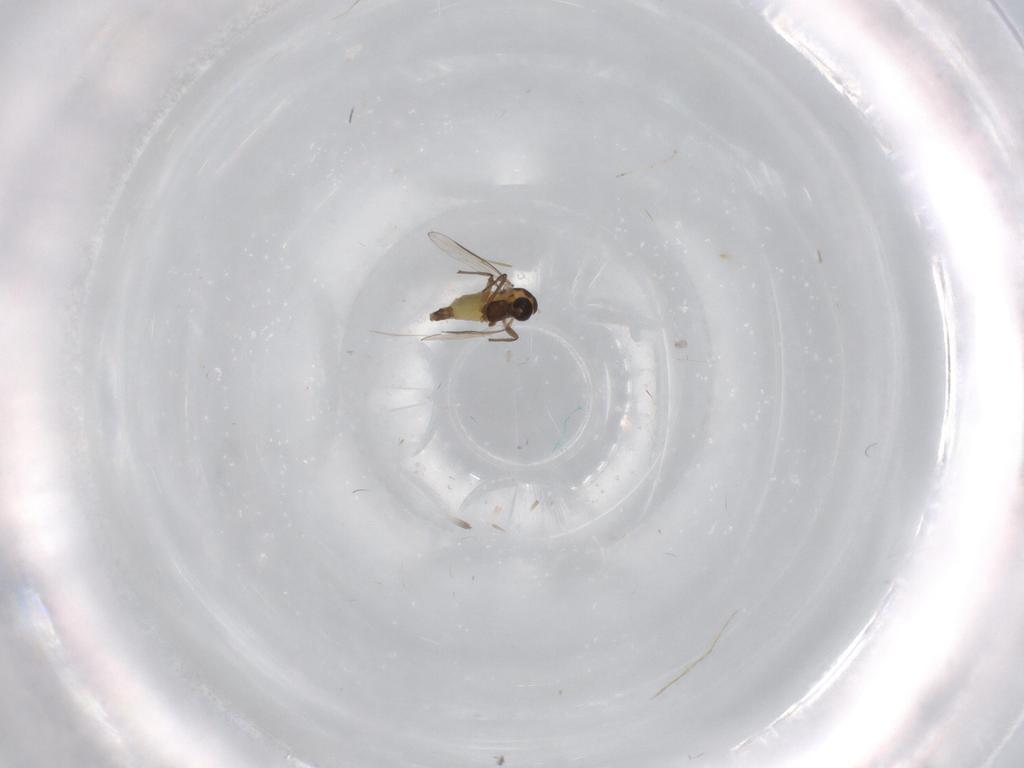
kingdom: Animalia
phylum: Arthropoda
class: Insecta
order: Diptera
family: Chironomidae
